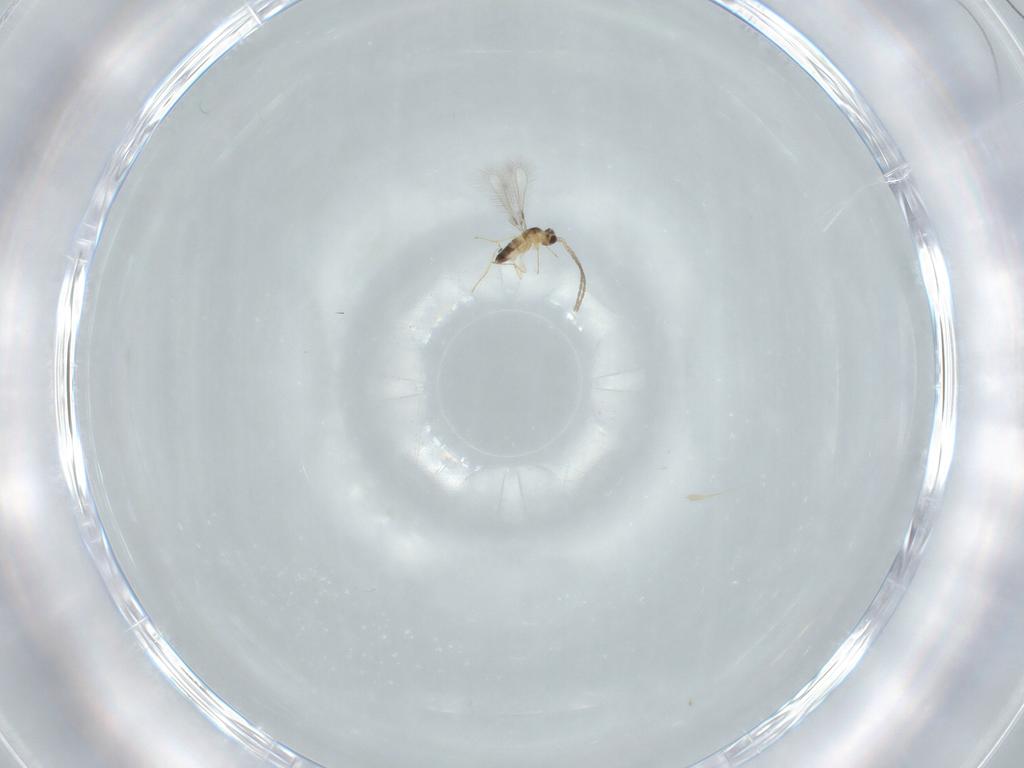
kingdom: Animalia
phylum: Arthropoda
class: Insecta
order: Hymenoptera
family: Mymaridae
